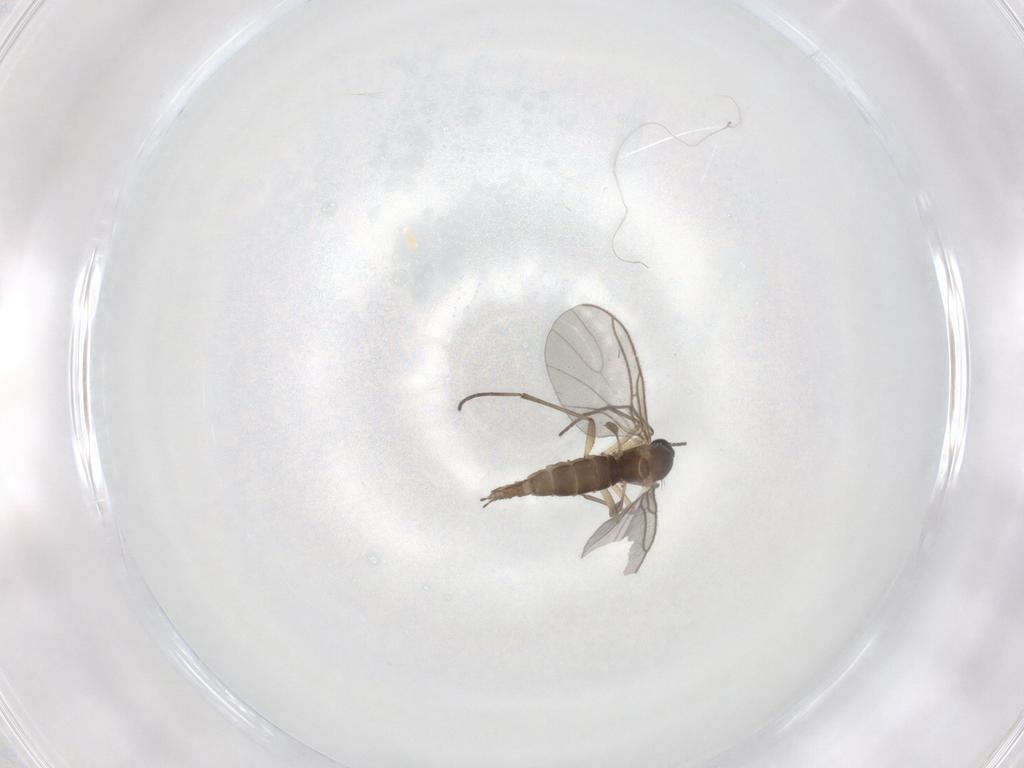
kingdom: Animalia
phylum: Arthropoda
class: Insecta
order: Diptera
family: Sciaridae
